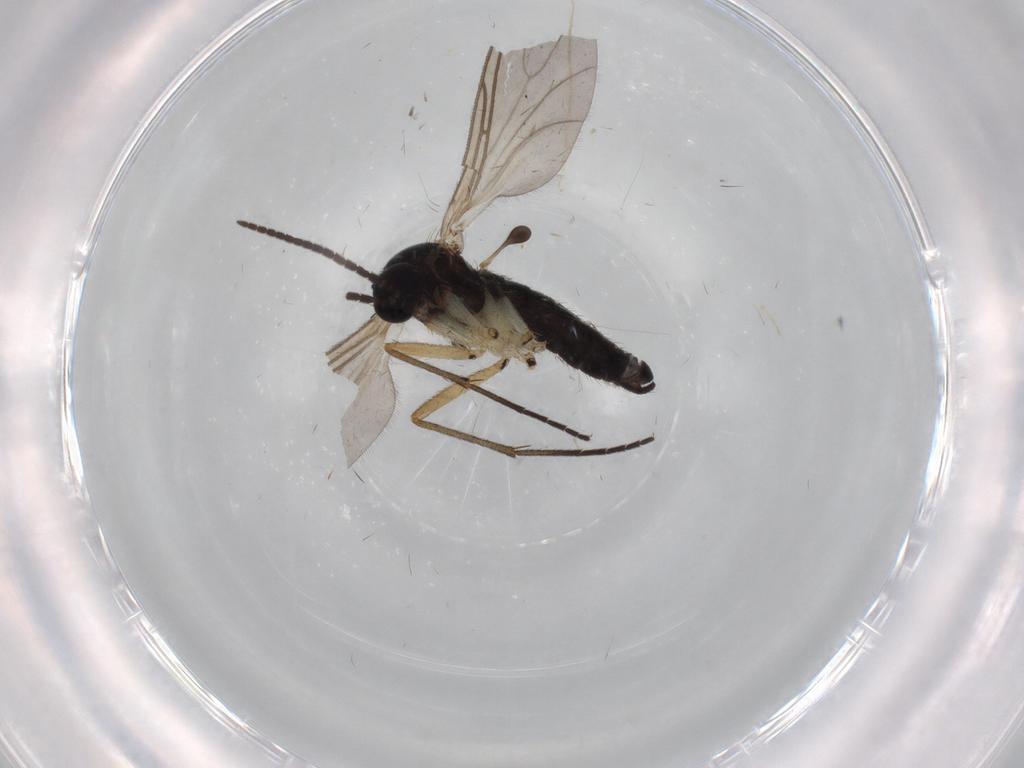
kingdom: Animalia
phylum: Arthropoda
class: Insecta
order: Diptera
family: Sciaridae
